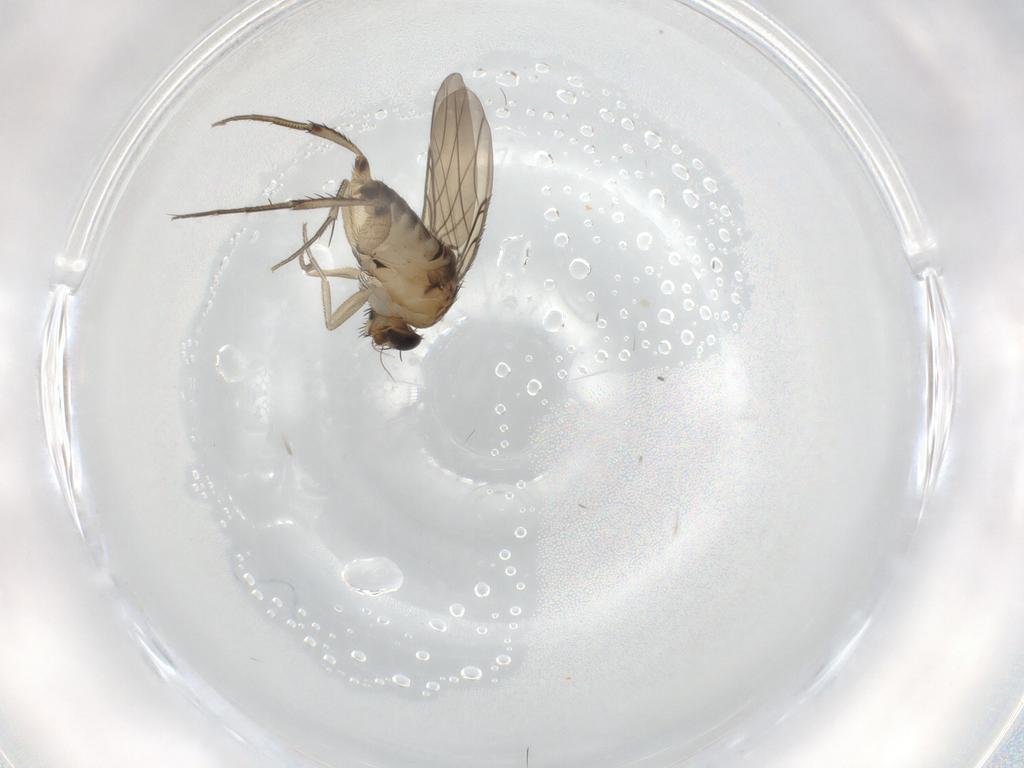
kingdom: Animalia
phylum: Arthropoda
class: Insecta
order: Diptera
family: Phoridae
